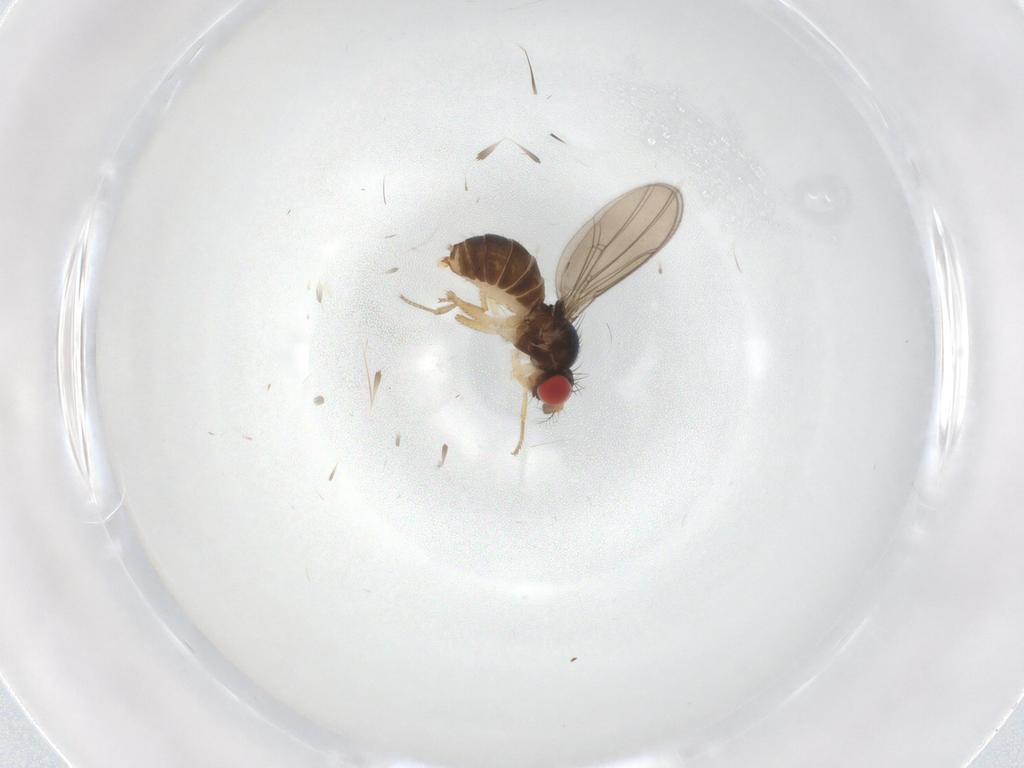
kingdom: Animalia
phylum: Arthropoda
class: Insecta
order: Diptera
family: Drosophilidae
